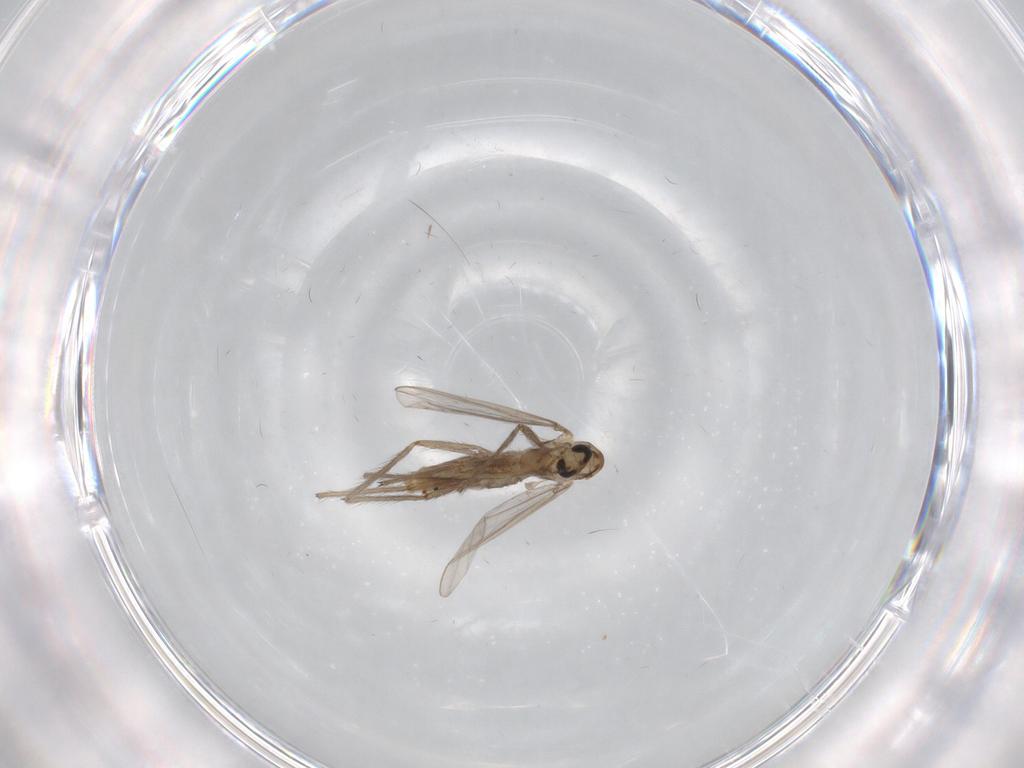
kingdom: Animalia
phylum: Arthropoda
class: Insecta
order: Diptera
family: Chironomidae
